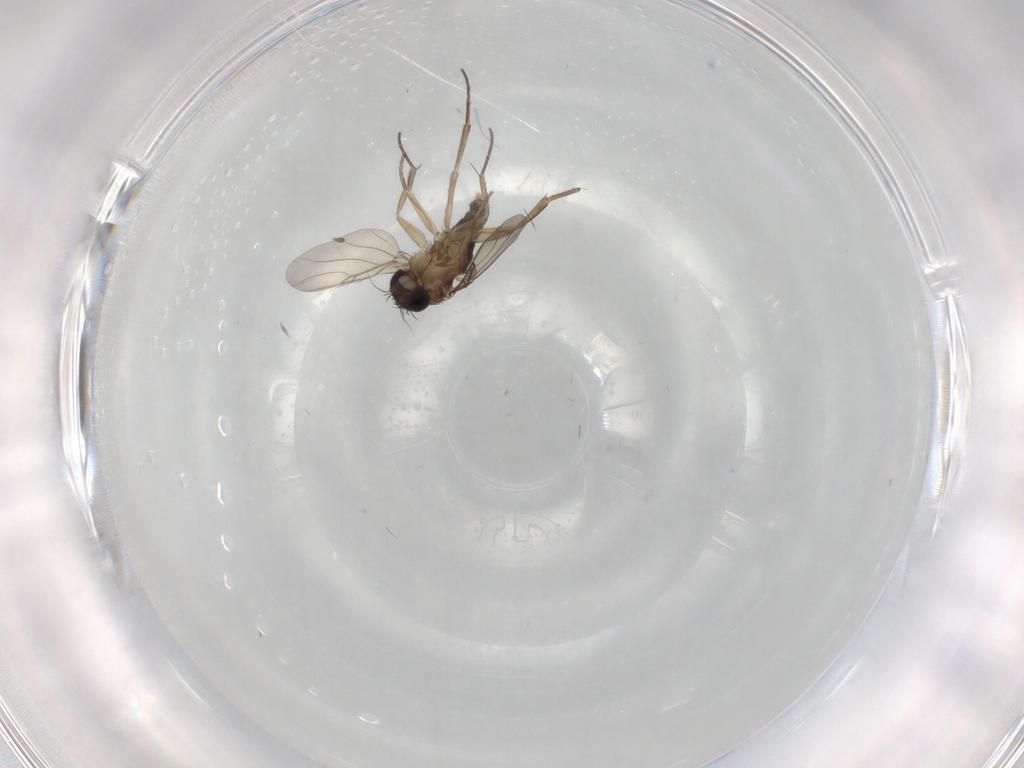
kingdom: Animalia
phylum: Arthropoda
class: Insecta
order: Diptera
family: Phoridae
